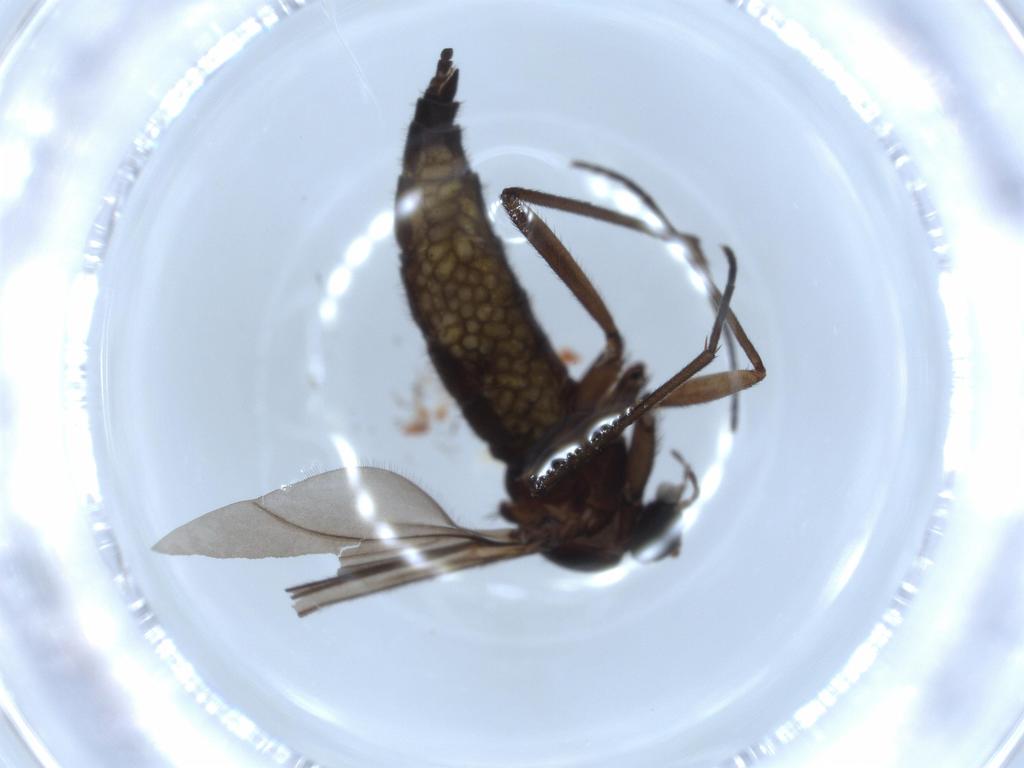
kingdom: Animalia
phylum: Arthropoda
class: Insecta
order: Diptera
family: Sciaridae
